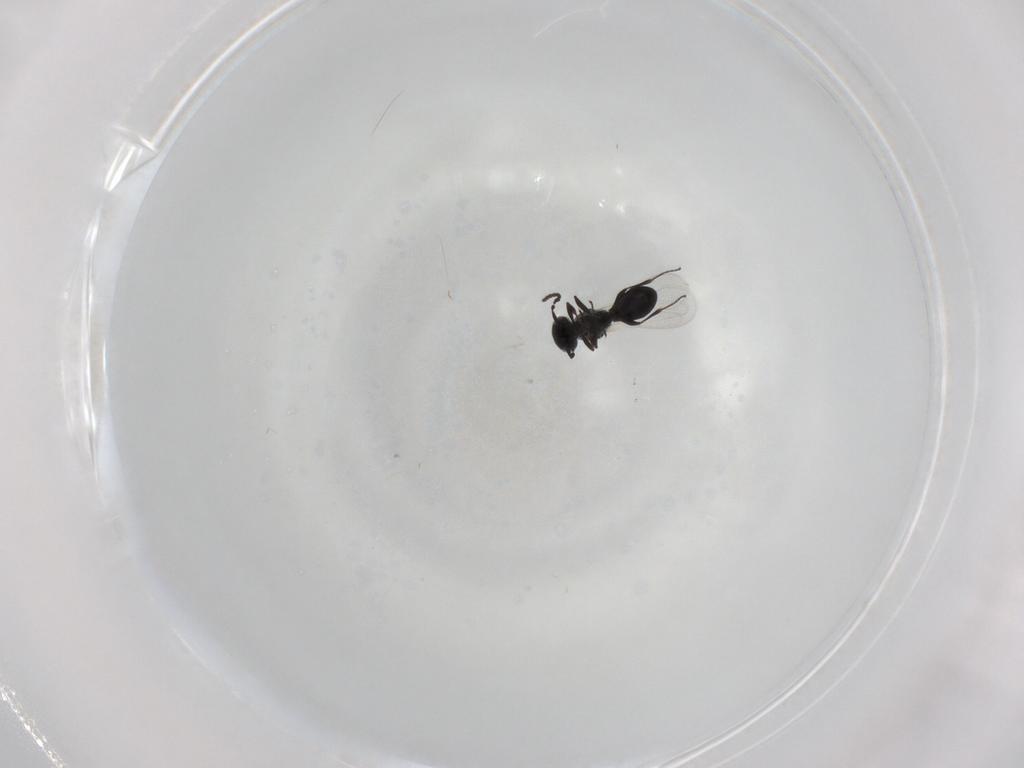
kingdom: Animalia
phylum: Arthropoda
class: Insecta
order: Hymenoptera
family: Platygastridae
